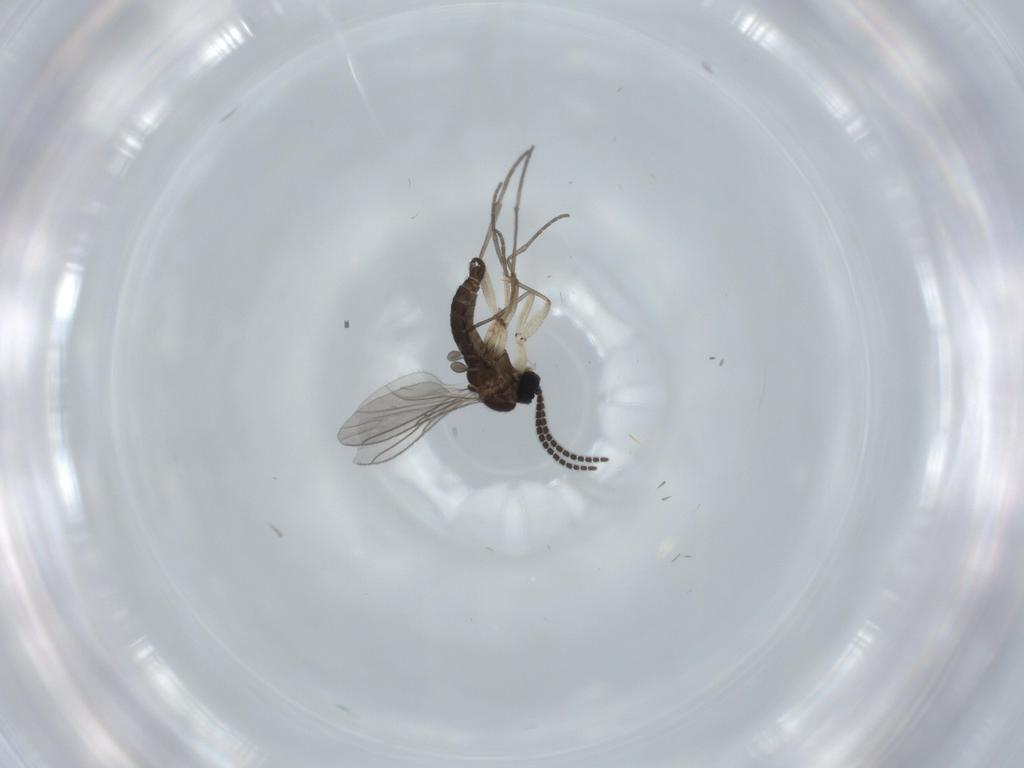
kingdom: Animalia
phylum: Arthropoda
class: Insecta
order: Diptera
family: Sciaridae
